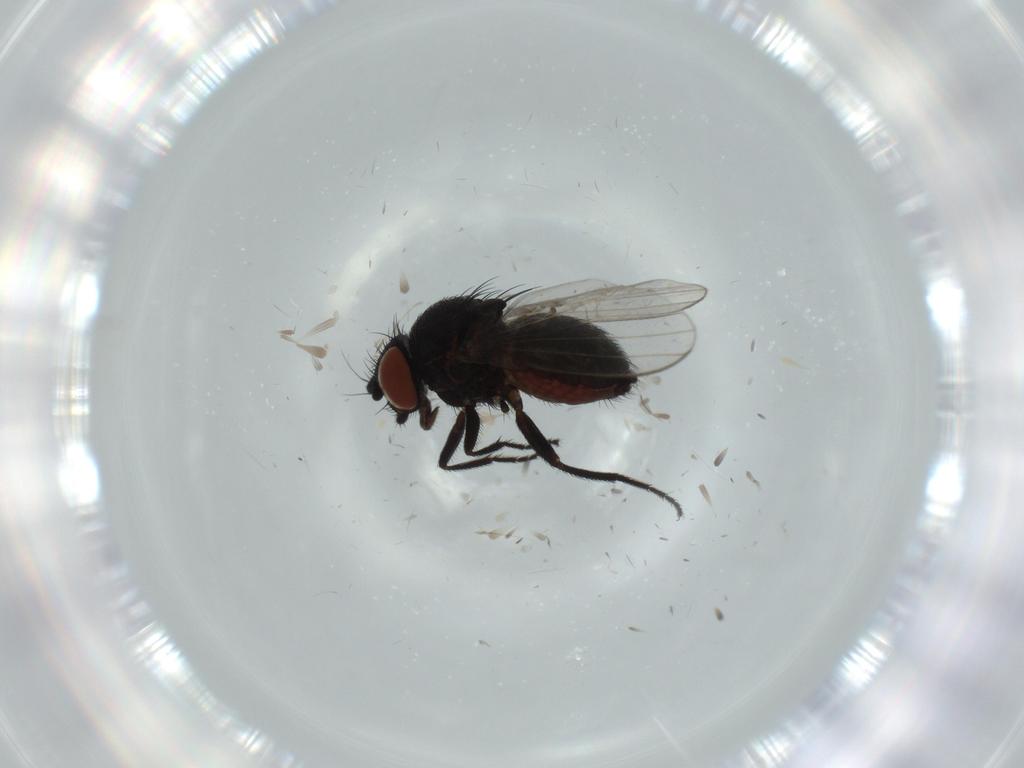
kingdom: Animalia
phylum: Arthropoda
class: Insecta
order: Diptera
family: Milichiidae
